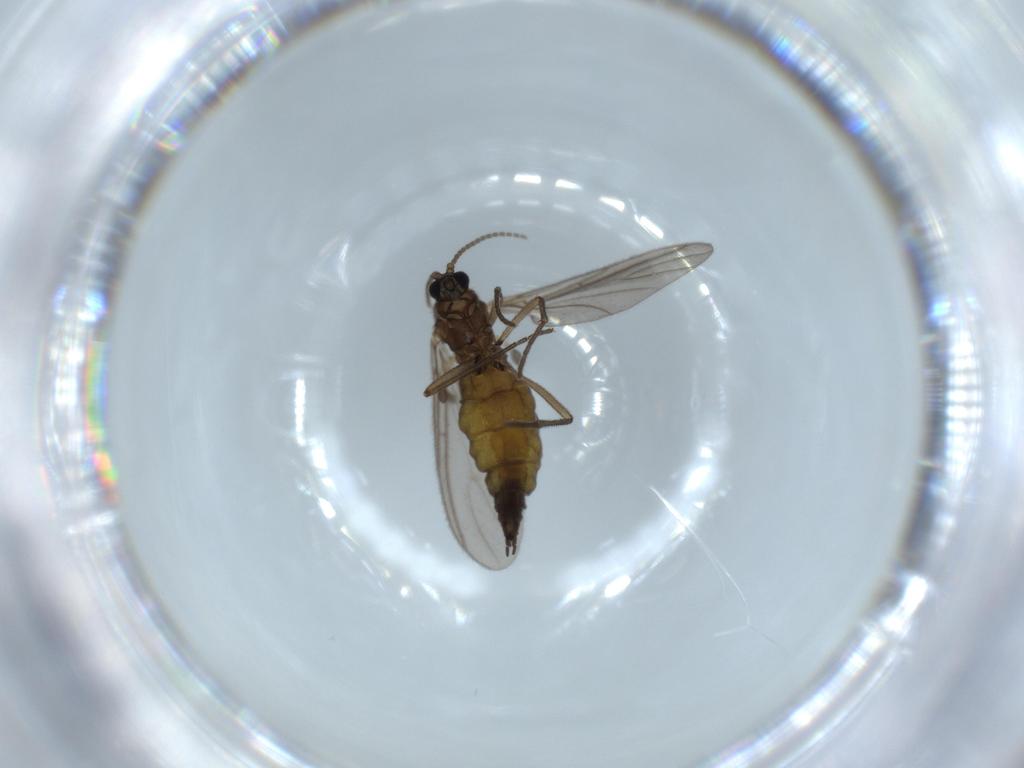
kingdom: Animalia
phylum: Arthropoda
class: Insecta
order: Diptera
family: Sciaridae
